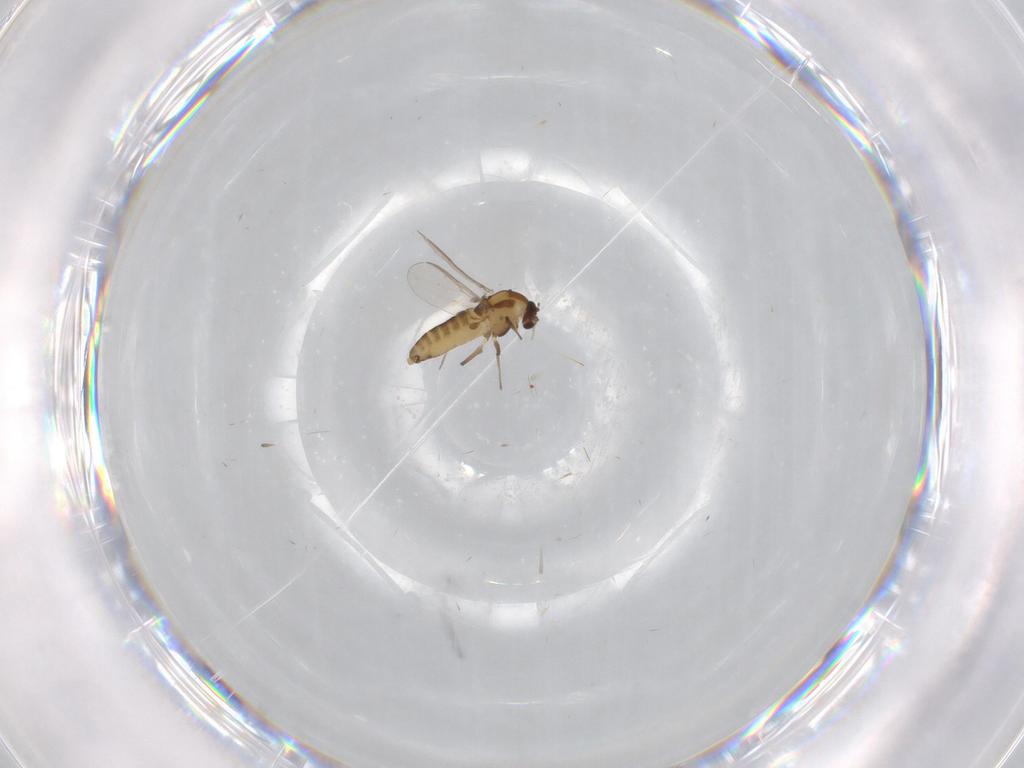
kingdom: Animalia
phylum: Arthropoda
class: Insecta
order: Diptera
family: Chironomidae
